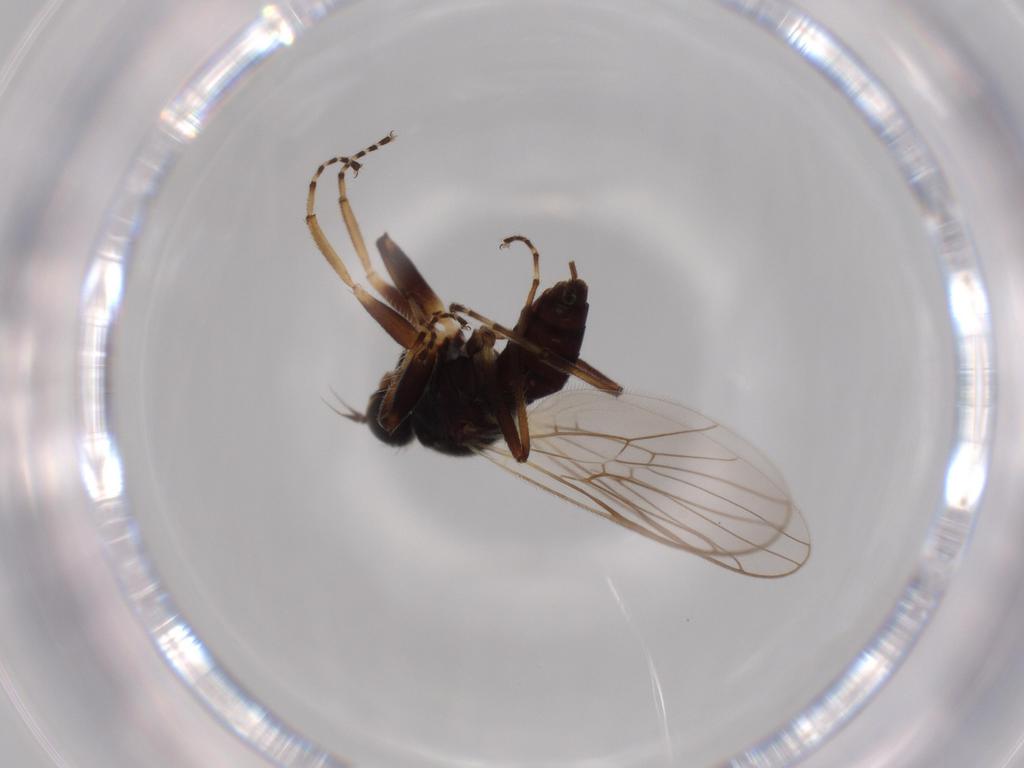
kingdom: Animalia
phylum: Arthropoda
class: Insecta
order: Diptera
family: Hybotidae
